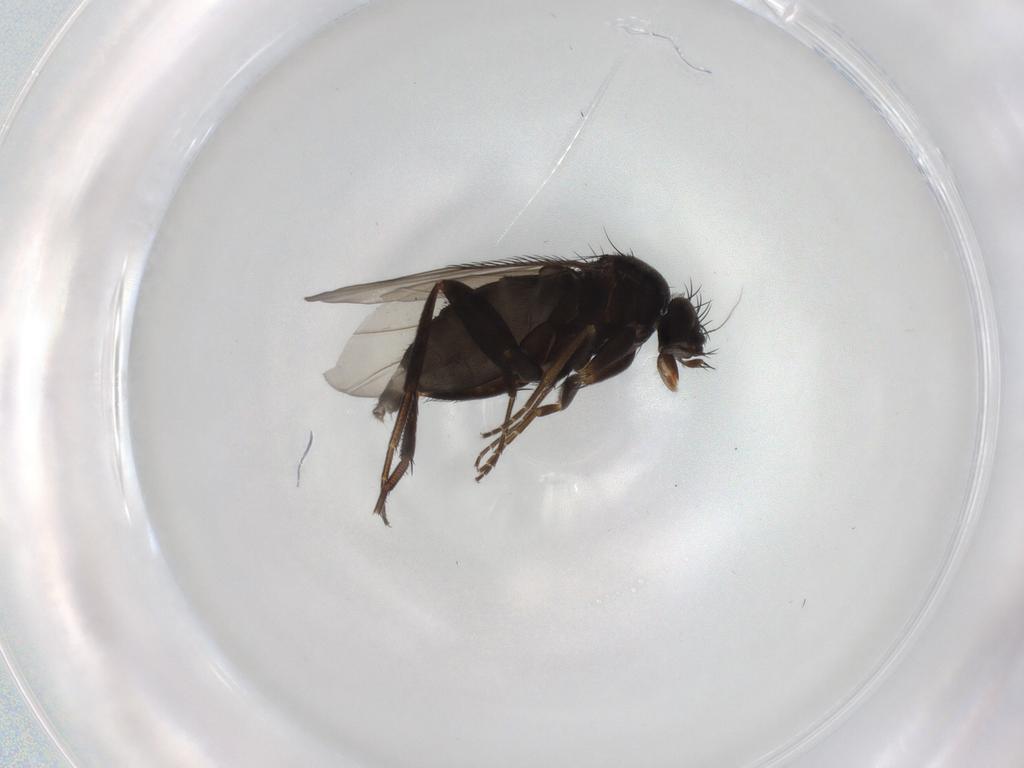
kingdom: Animalia
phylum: Arthropoda
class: Insecta
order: Diptera
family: Phoridae
